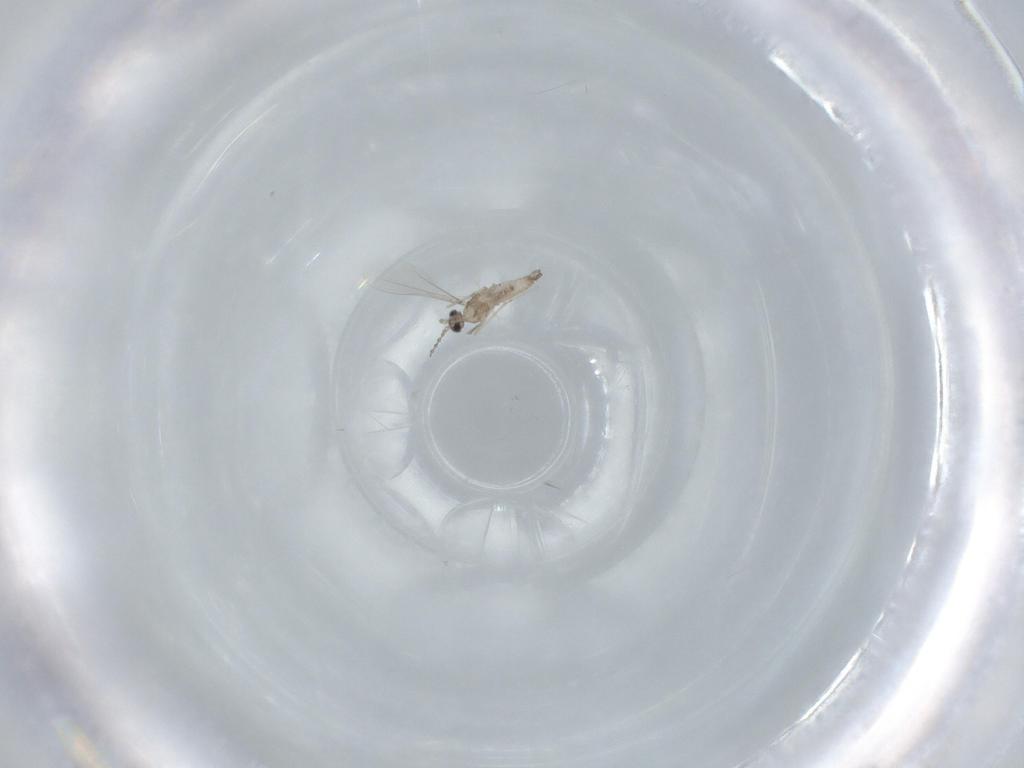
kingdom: Animalia
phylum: Arthropoda
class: Insecta
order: Diptera
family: Cecidomyiidae
